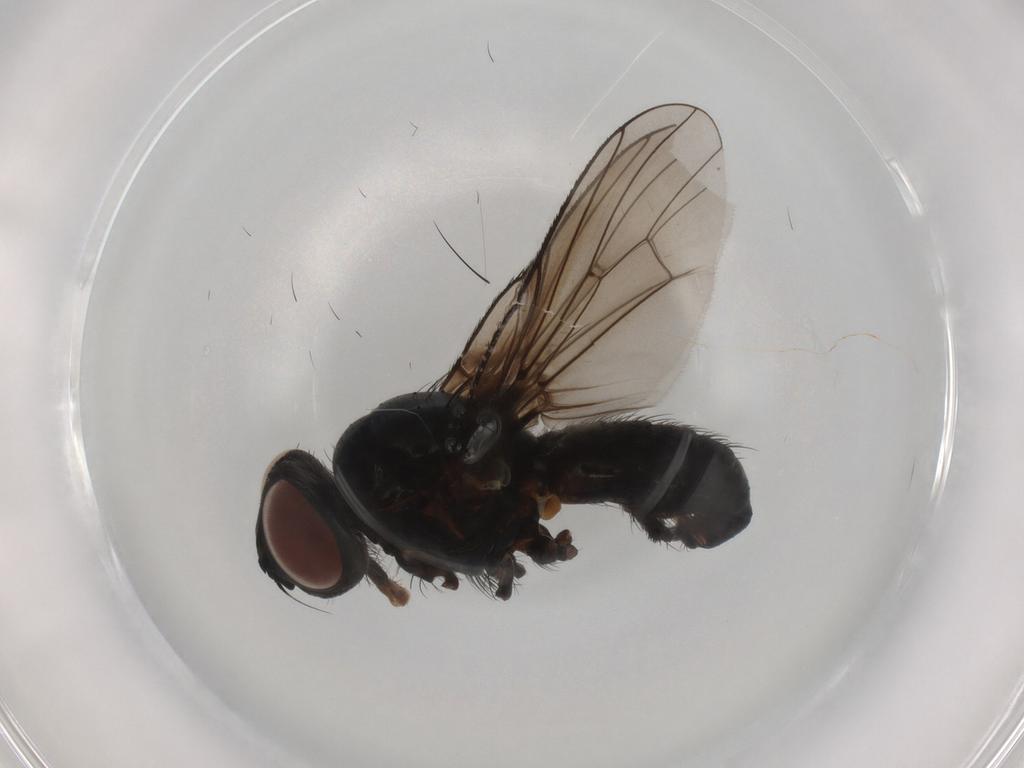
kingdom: Animalia
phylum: Arthropoda
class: Insecta
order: Diptera
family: Anthomyiidae
